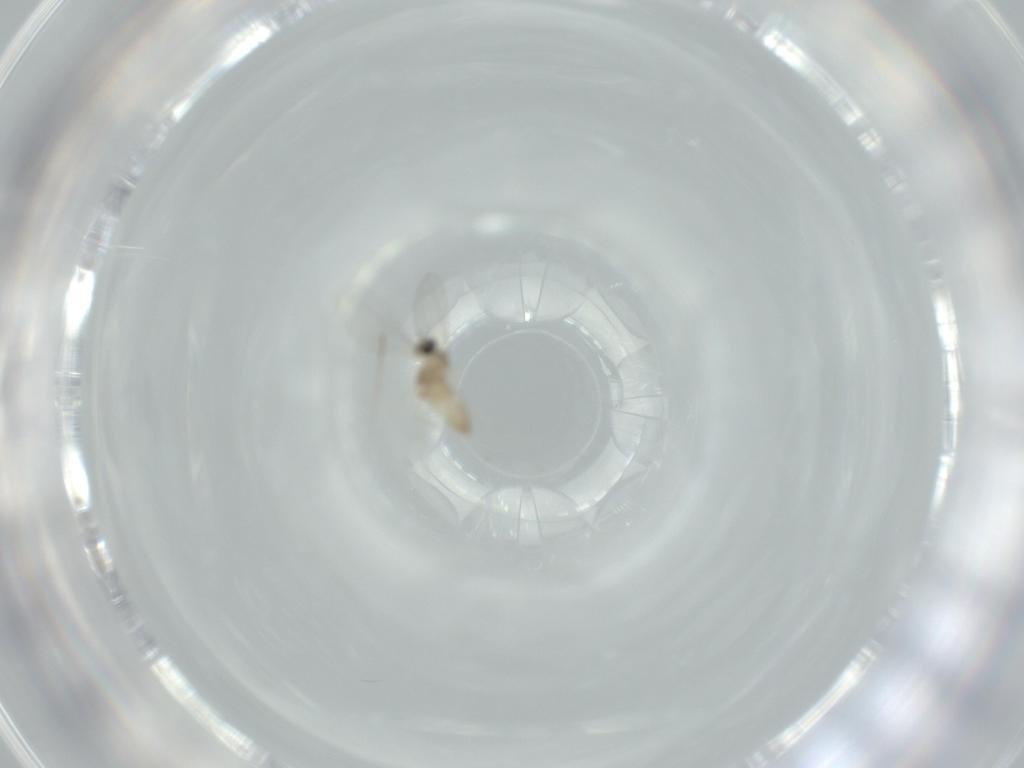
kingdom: Animalia
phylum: Arthropoda
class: Insecta
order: Diptera
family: Cecidomyiidae
